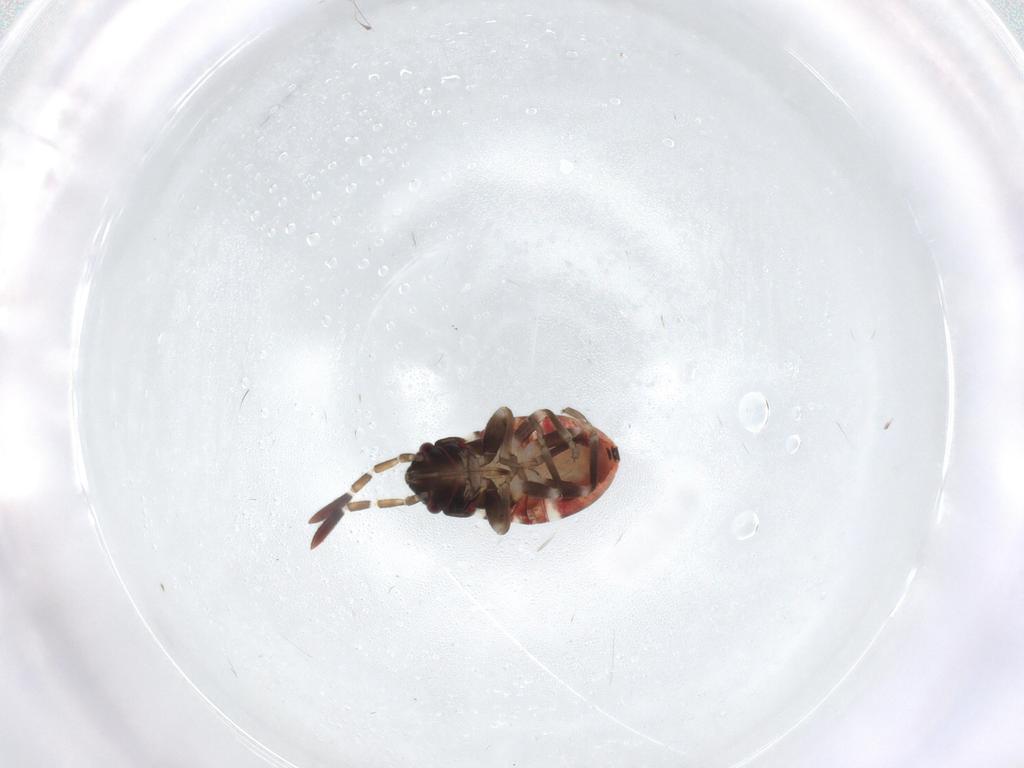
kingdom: Animalia
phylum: Arthropoda
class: Insecta
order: Hemiptera
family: Rhyparochromidae
